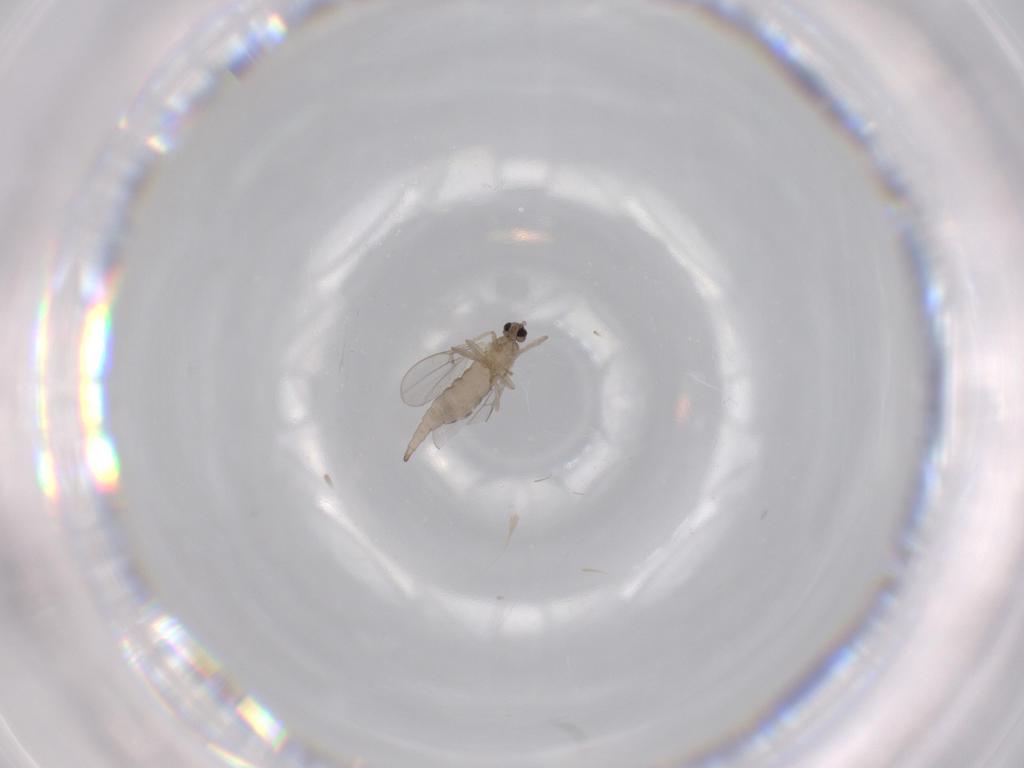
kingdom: Animalia
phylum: Arthropoda
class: Insecta
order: Diptera
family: Cecidomyiidae
